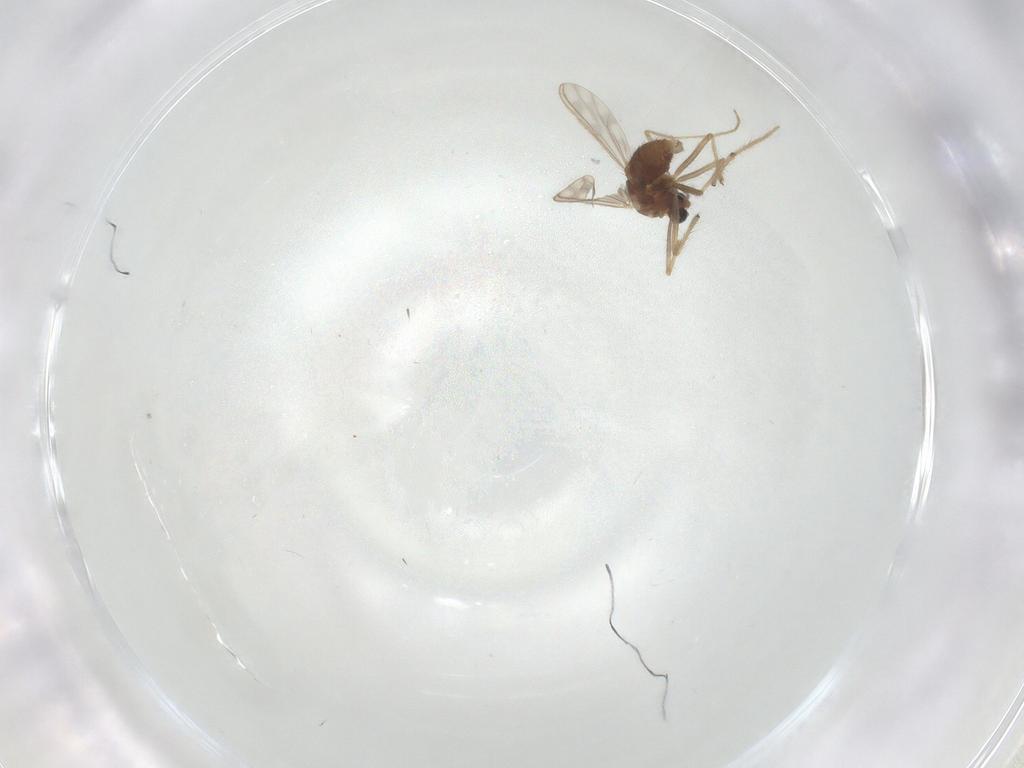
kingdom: Animalia
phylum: Arthropoda
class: Insecta
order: Diptera
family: Chironomidae
